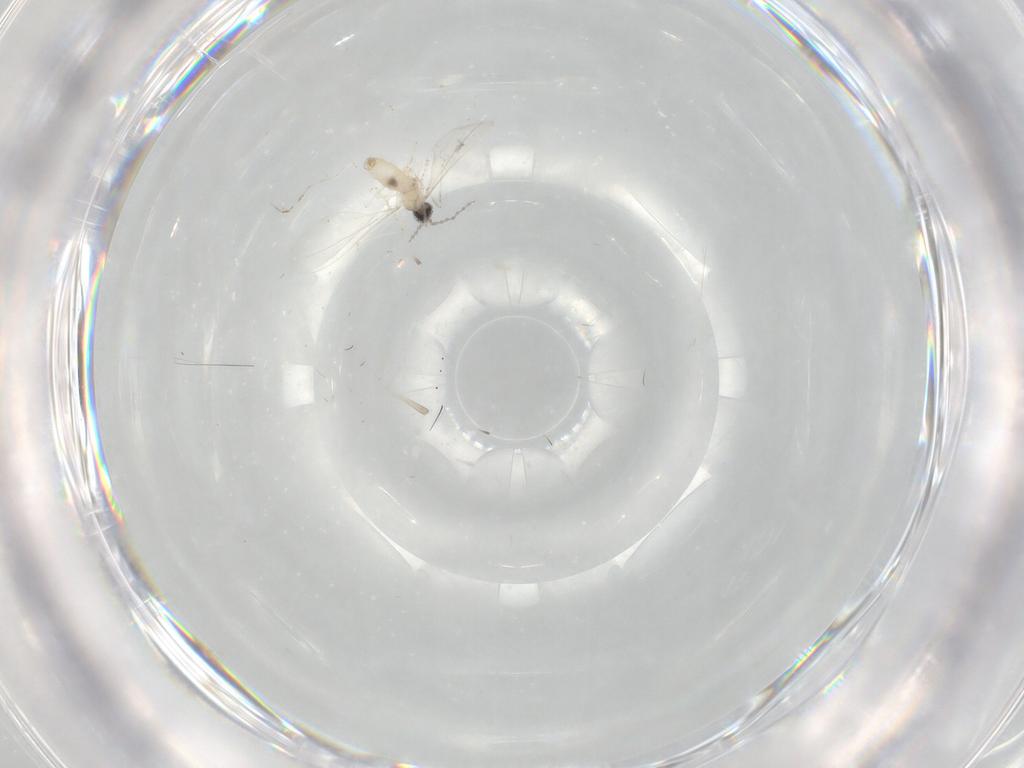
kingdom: Animalia
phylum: Arthropoda
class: Insecta
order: Diptera
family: Cecidomyiidae
